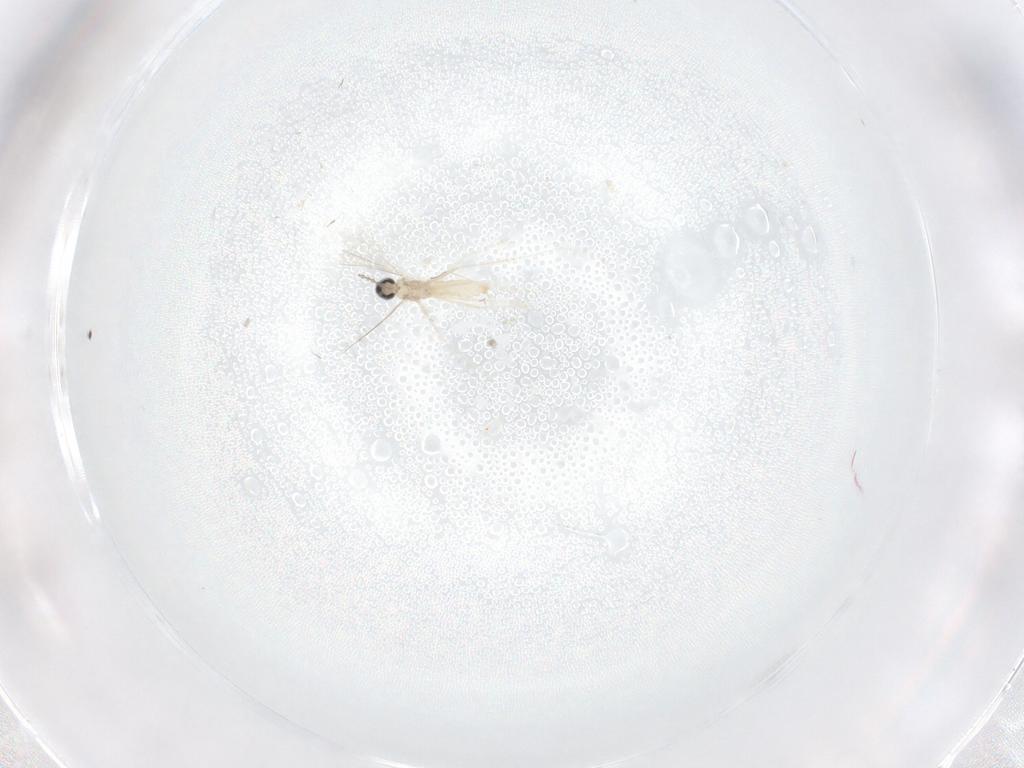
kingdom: Animalia
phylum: Arthropoda
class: Insecta
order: Diptera
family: Cecidomyiidae
